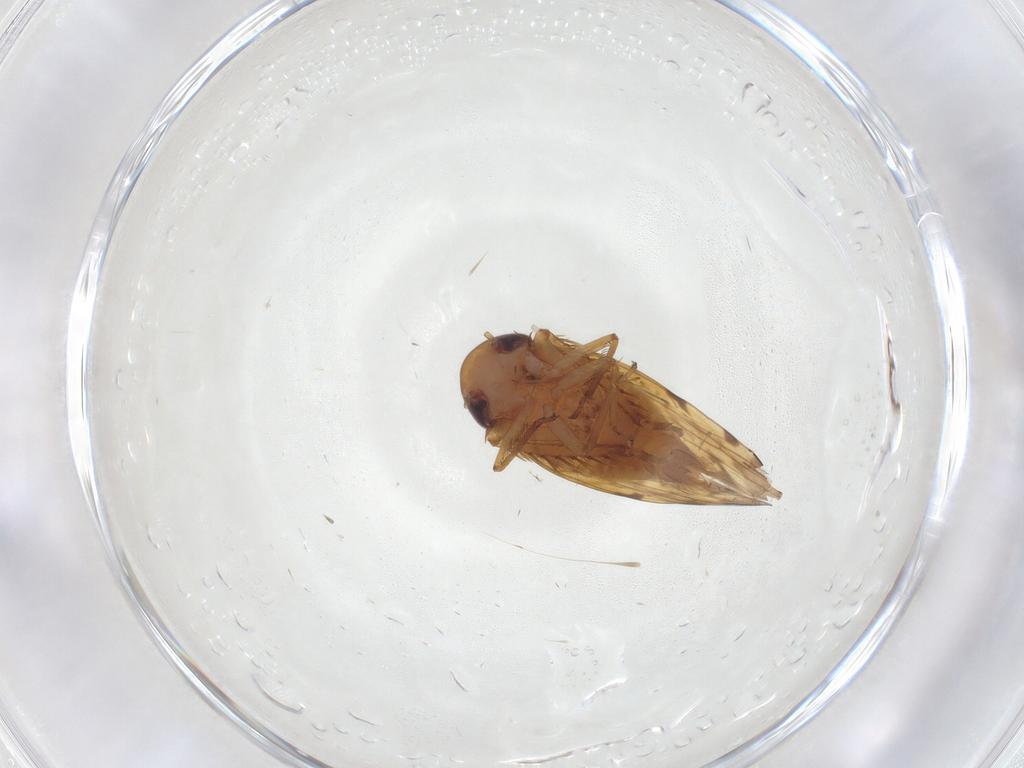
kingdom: Animalia
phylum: Arthropoda
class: Insecta
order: Hemiptera
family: Cicadellidae
